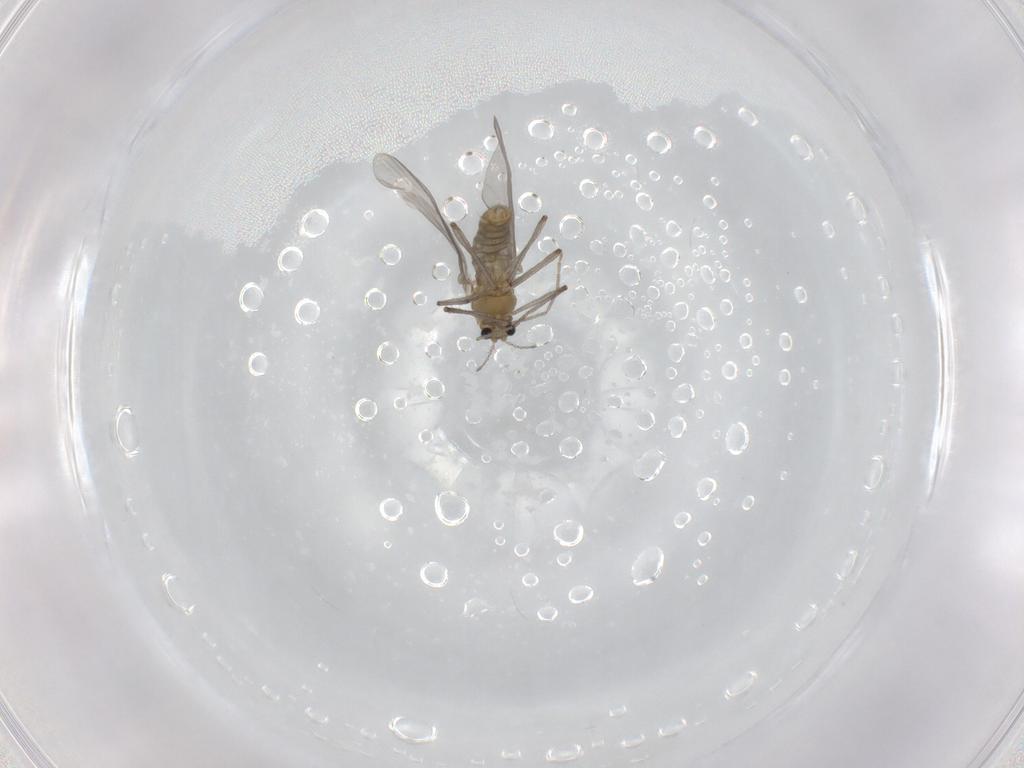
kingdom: Animalia
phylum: Arthropoda
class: Insecta
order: Diptera
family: Chironomidae
